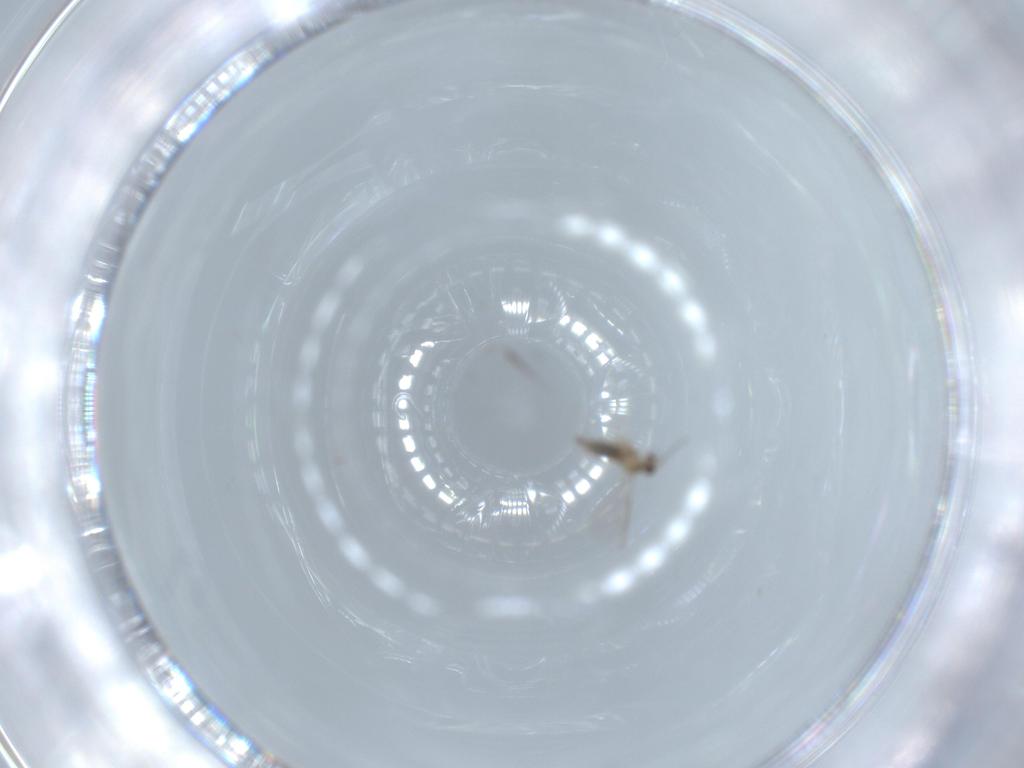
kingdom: Animalia
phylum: Arthropoda
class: Insecta
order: Diptera
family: Cecidomyiidae
